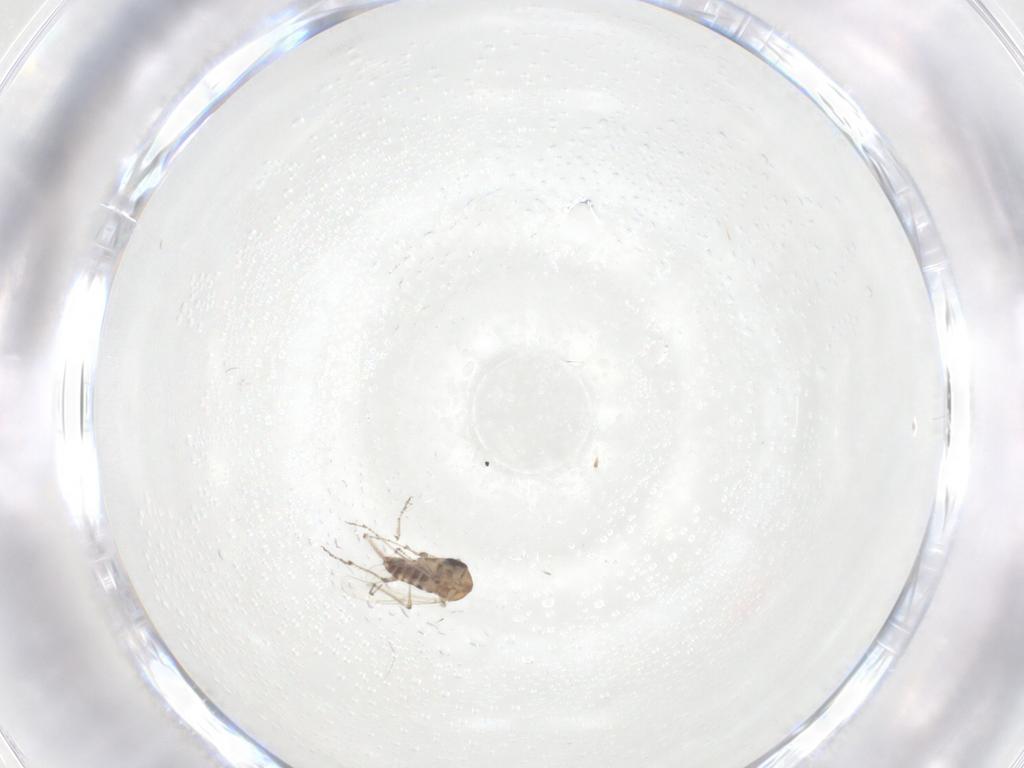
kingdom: Animalia
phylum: Arthropoda
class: Insecta
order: Diptera
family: Ceratopogonidae
